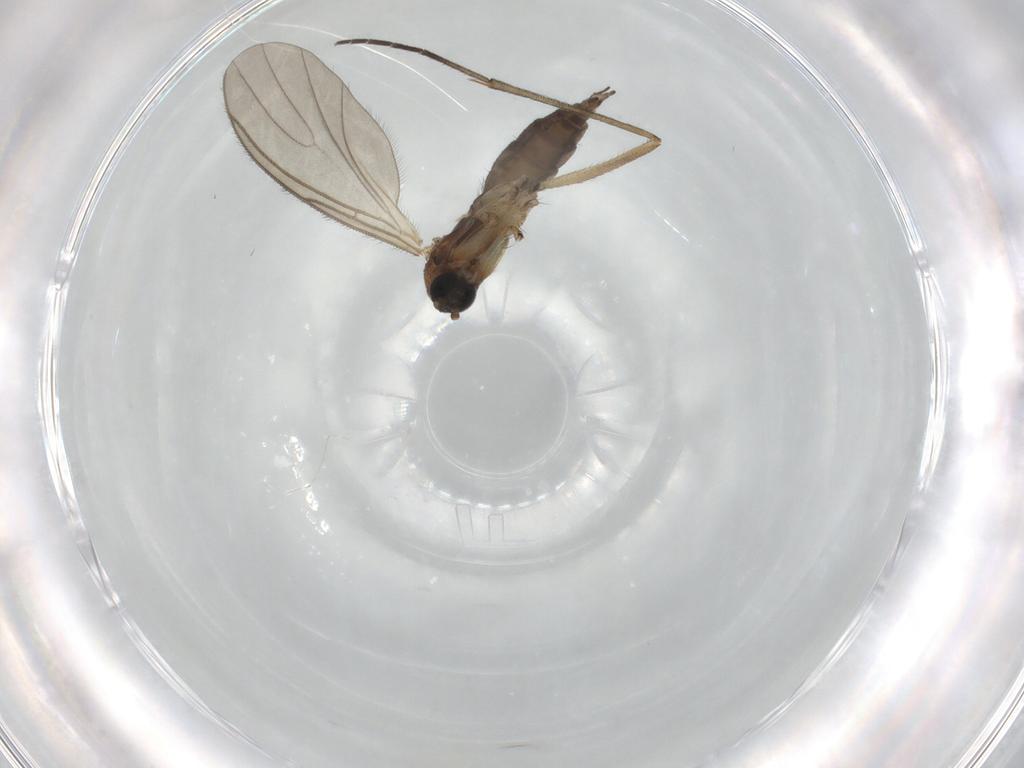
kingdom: Animalia
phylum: Arthropoda
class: Insecta
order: Diptera
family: Sciaridae
